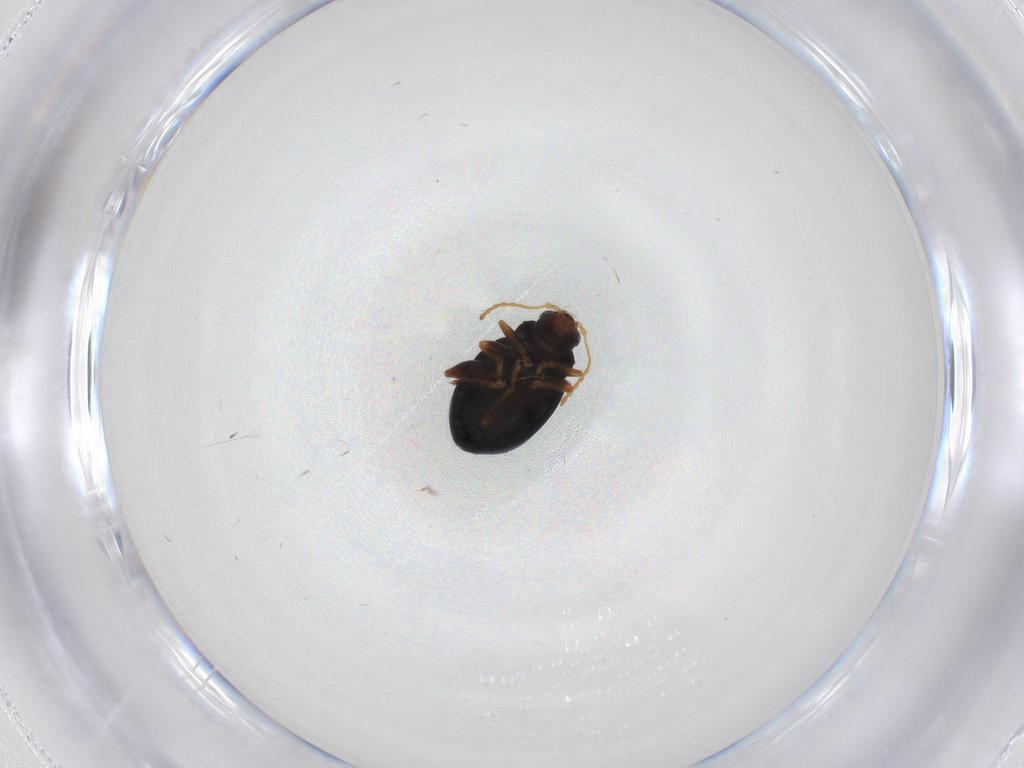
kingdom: Animalia
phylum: Arthropoda
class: Insecta
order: Coleoptera
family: Chrysomelidae
